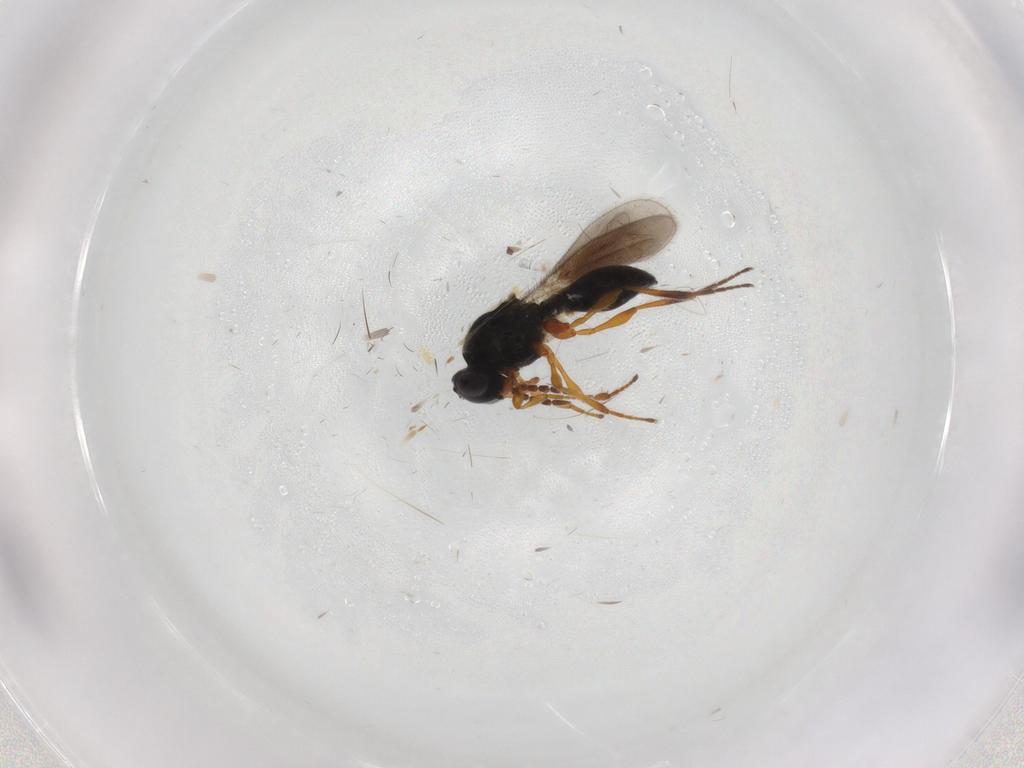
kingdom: Animalia
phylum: Arthropoda
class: Insecta
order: Hymenoptera
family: Platygastridae
